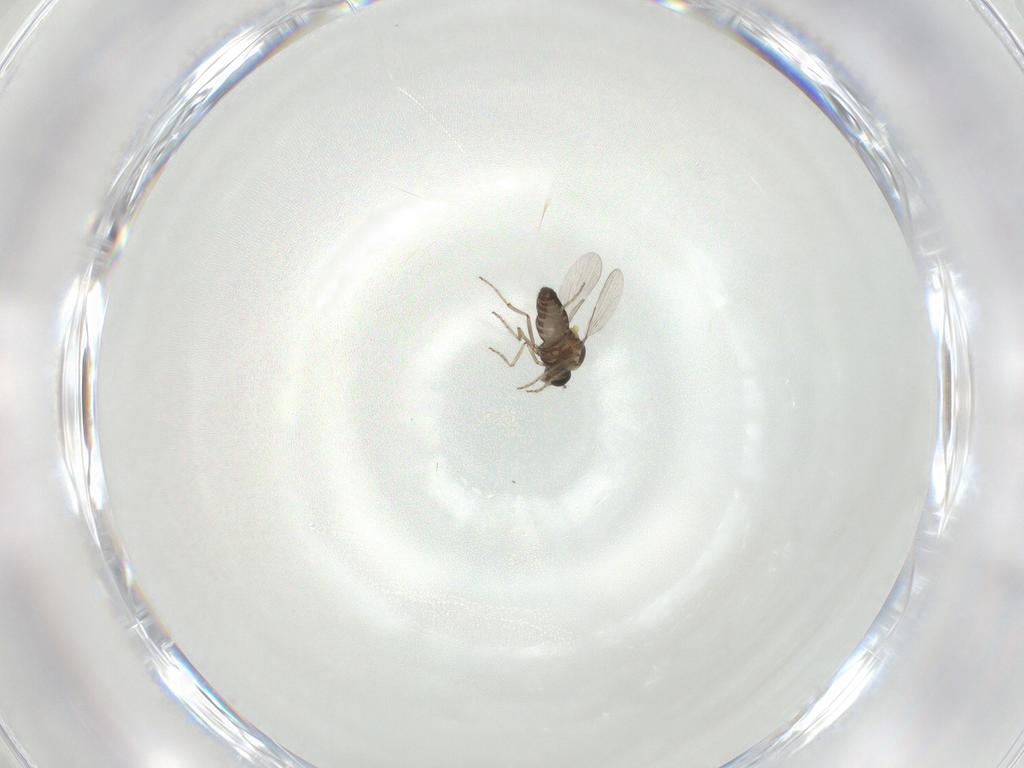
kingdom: Animalia
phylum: Arthropoda
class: Insecta
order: Diptera
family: Ceratopogonidae
